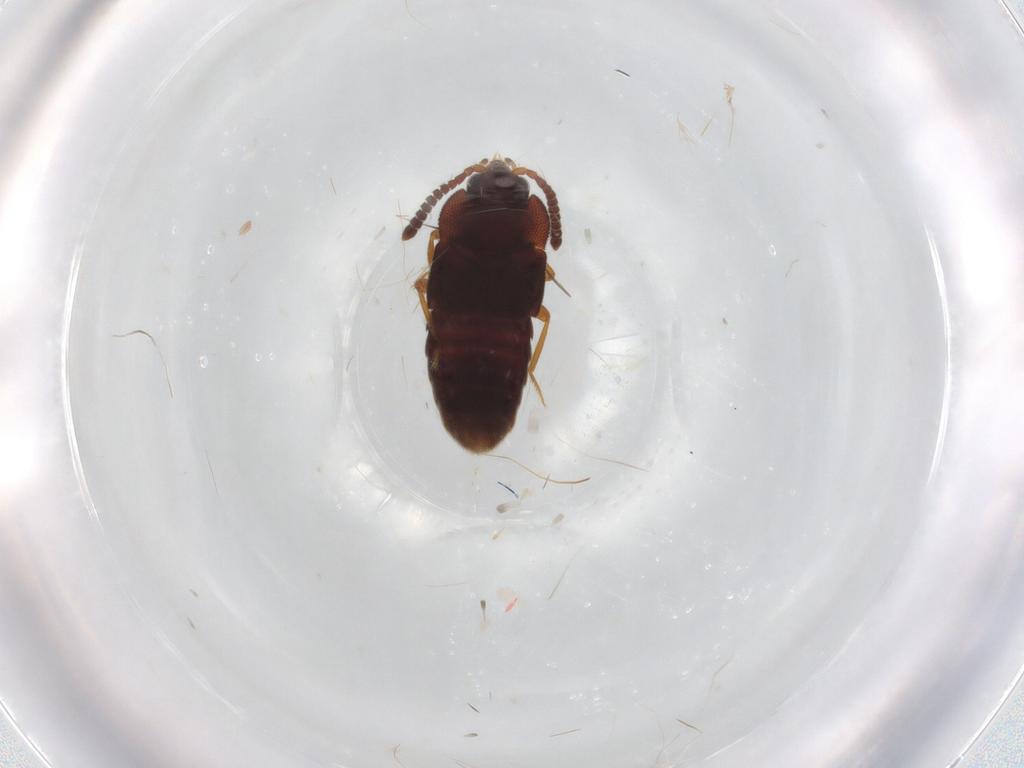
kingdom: Animalia
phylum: Arthropoda
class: Insecta
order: Coleoptera
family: Staphylinidae
